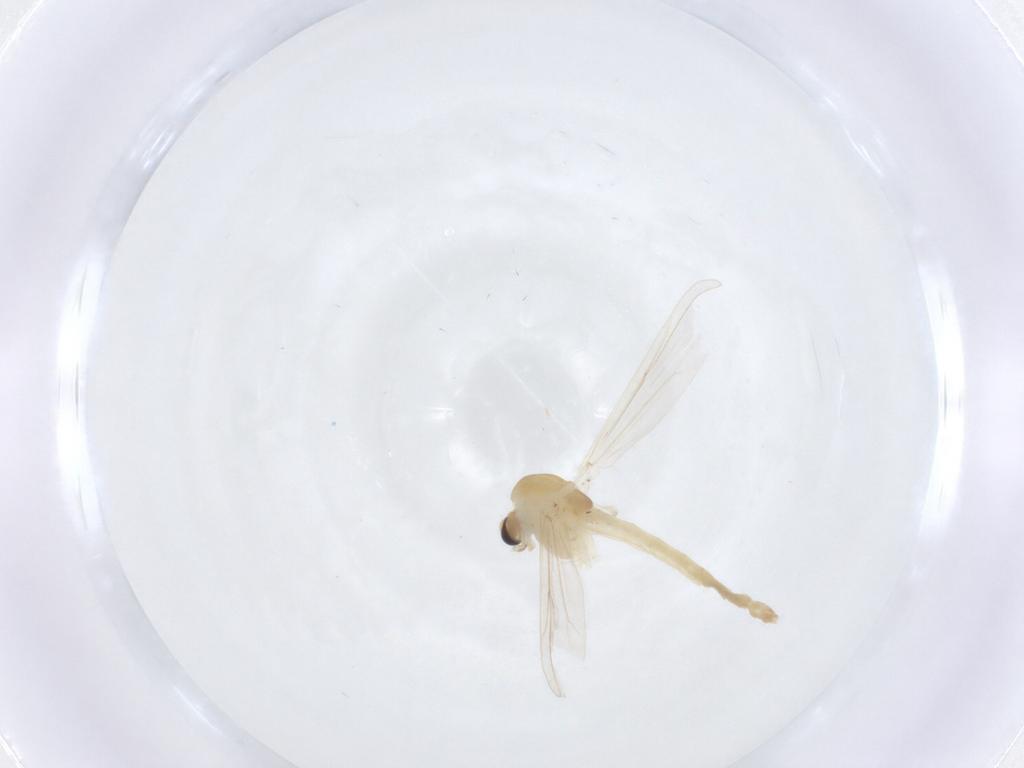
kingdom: Animalia
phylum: Arthropoda
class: Insecta
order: Diptera
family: Chironomidae
